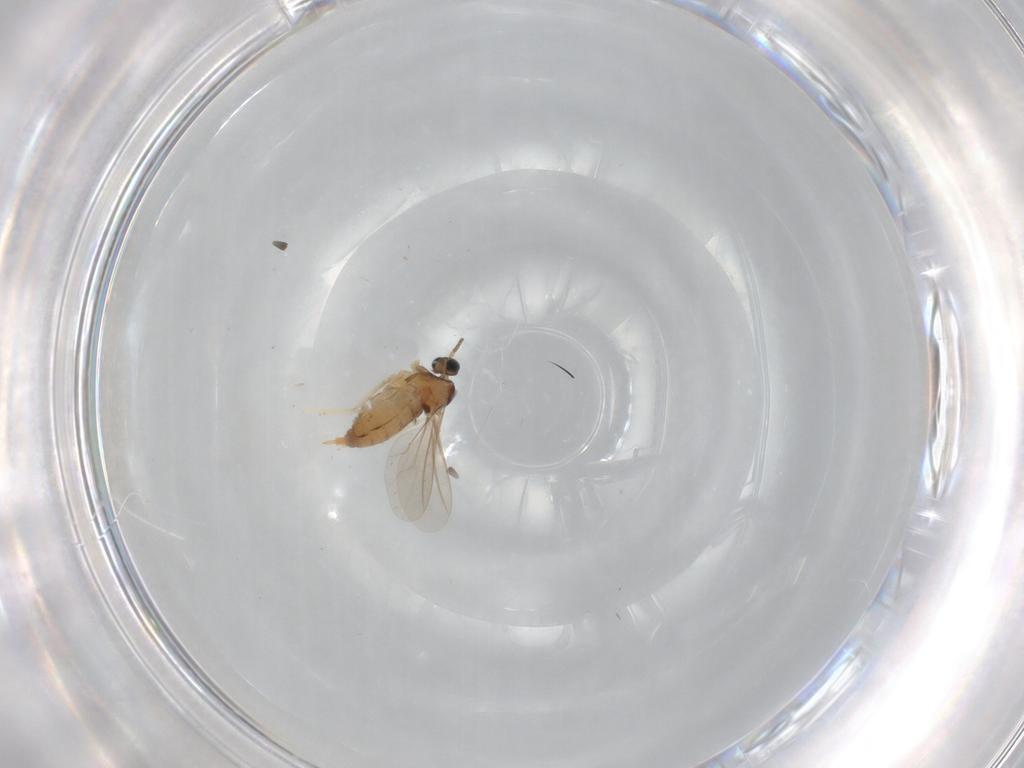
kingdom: Animalia
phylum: Arthropoda
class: Insecta
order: Diptera
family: Cecidomyiidae
